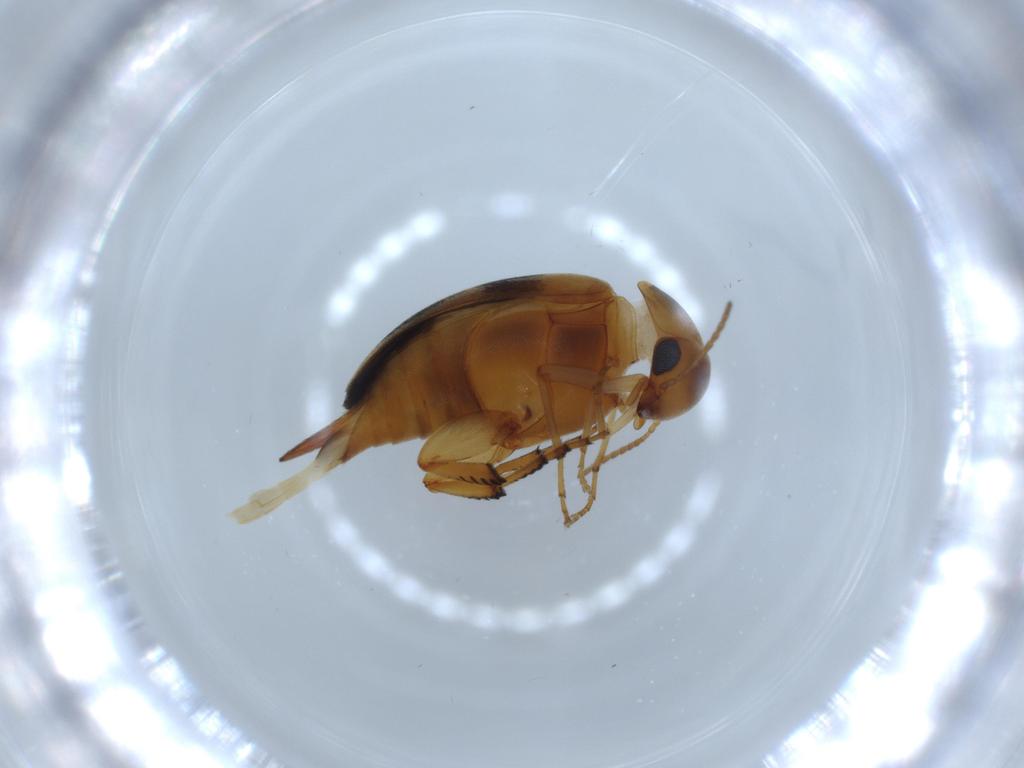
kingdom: Animalia
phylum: Arthropoda
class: Insecta
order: Coleoptera
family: Mordellidae
